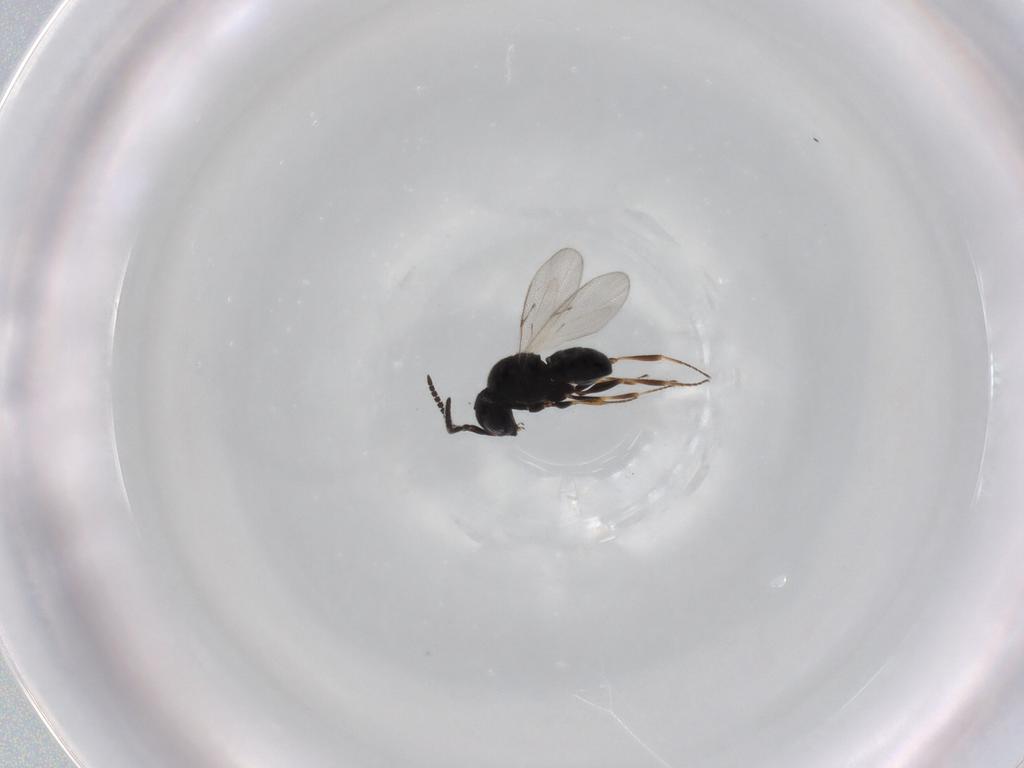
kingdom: Animalia
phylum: Arthropoda
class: Insecta
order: Hymenoptera
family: Scelionidae
